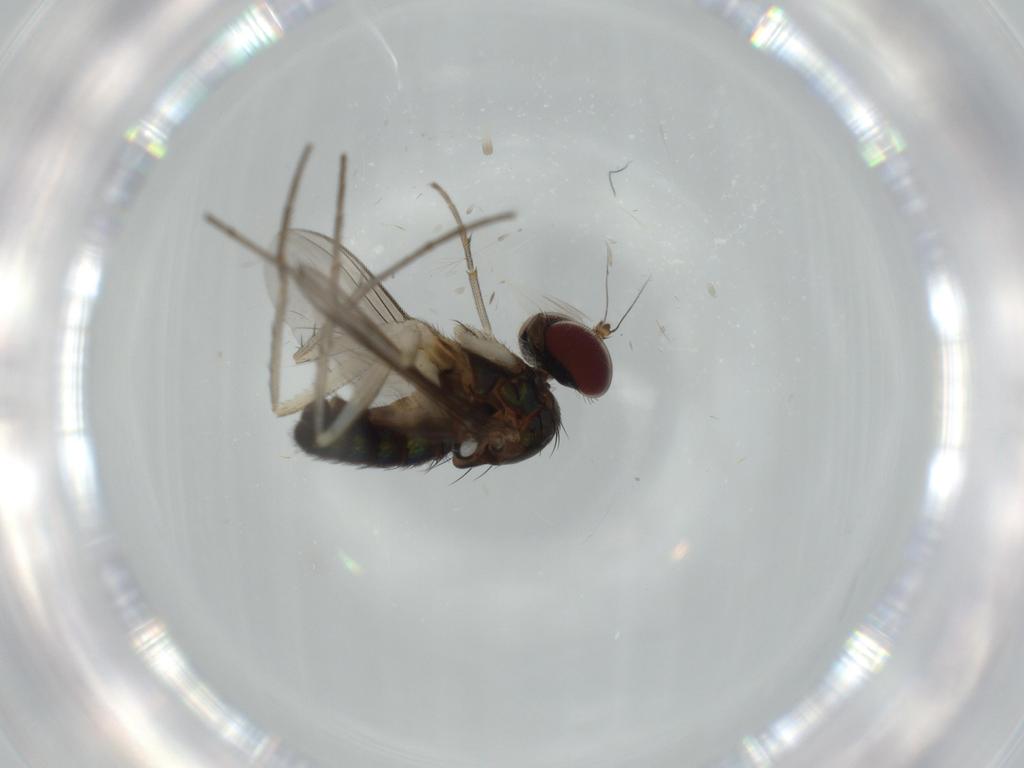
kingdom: Animalia
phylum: Arthropoda
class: Insecta
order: Diptera
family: Dolichopodidae
